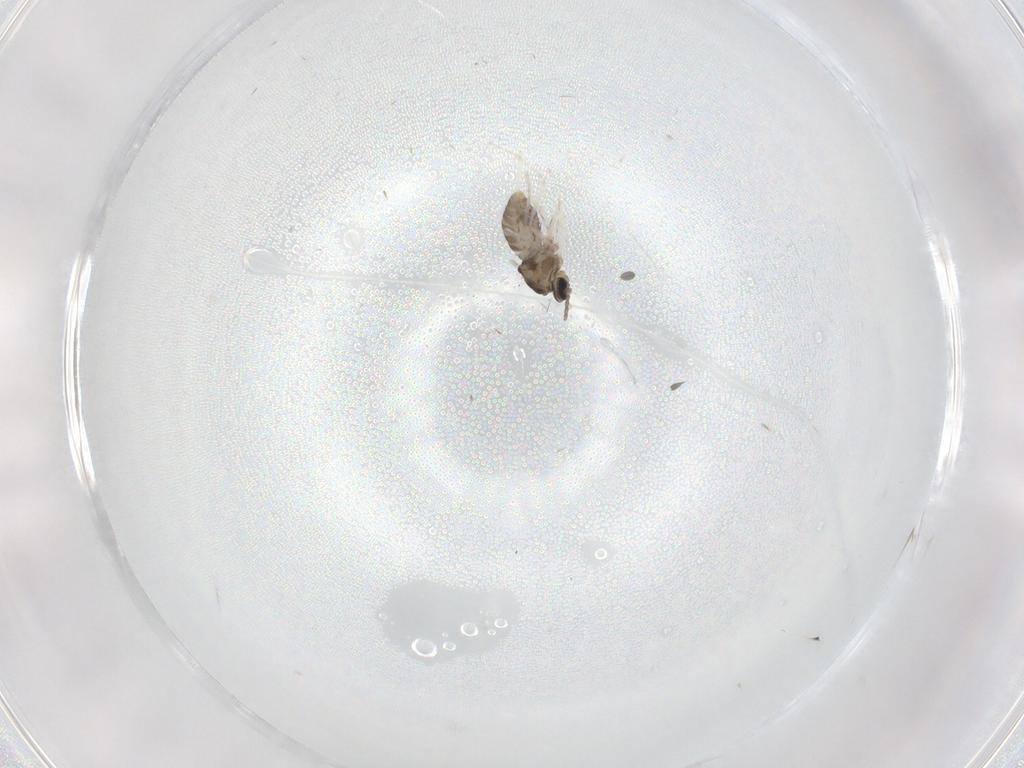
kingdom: Animalia
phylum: Arthropoda
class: Insecta
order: Diptera
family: Cecidomyiidae
